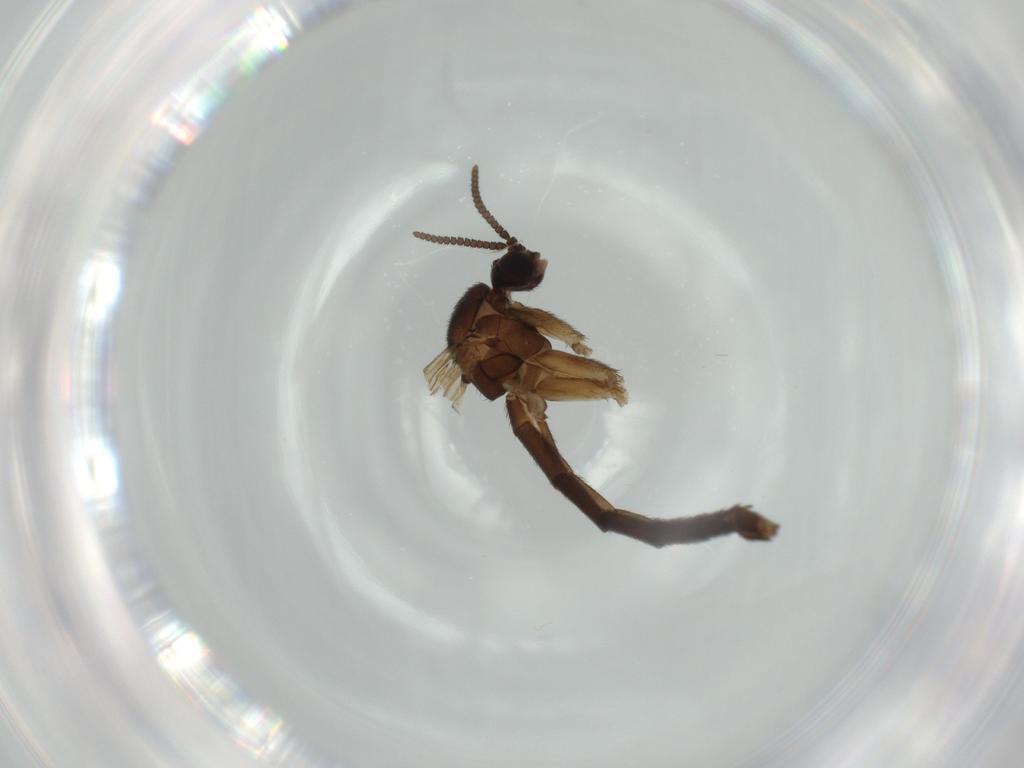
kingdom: Animalia
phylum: Arthropoda
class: Insecta
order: Diptera
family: Keroplatidae
